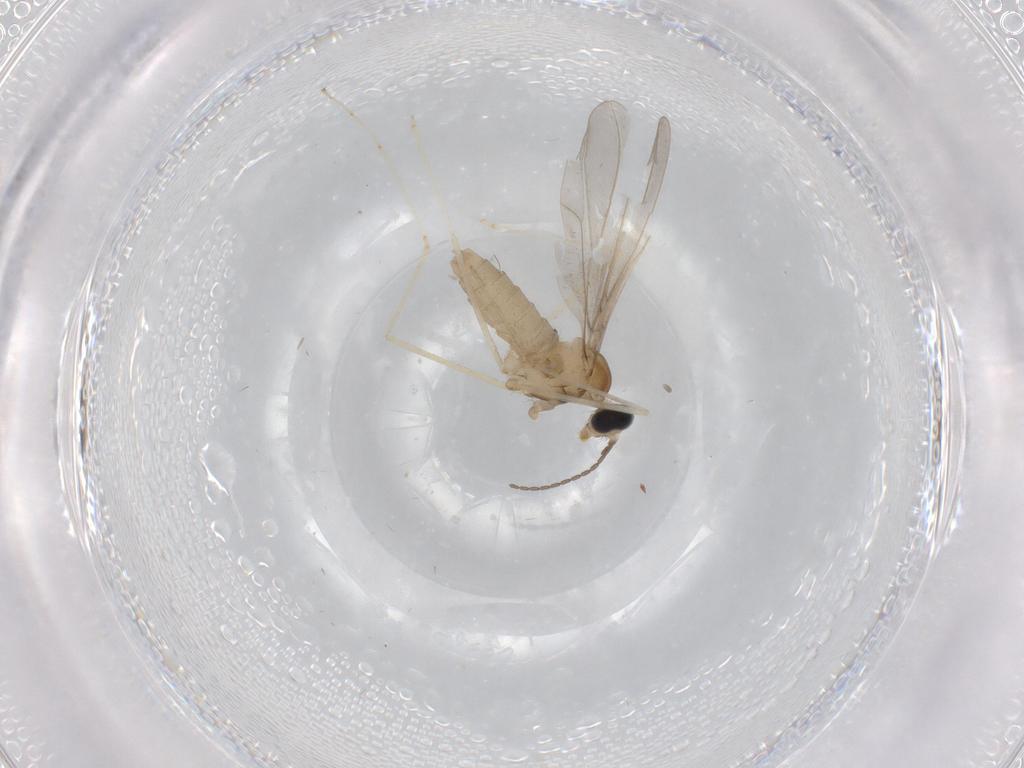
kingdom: Animalia
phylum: Arthropoda
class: Insecta
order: Diptera
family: Cecidomyiidae
